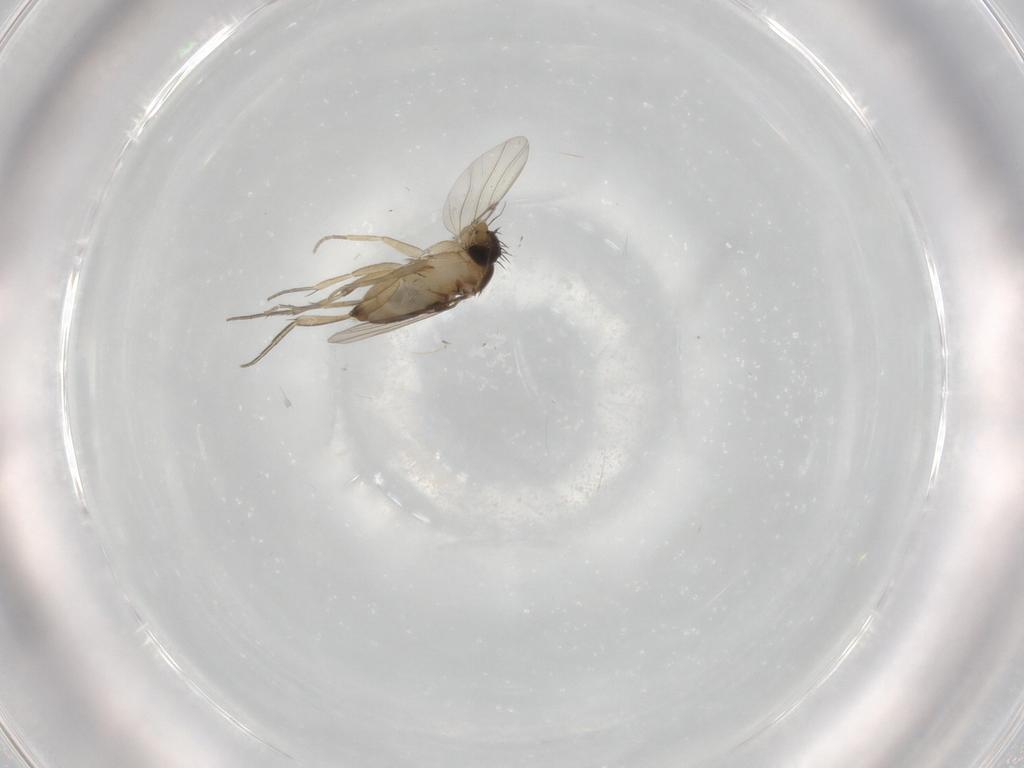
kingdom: Animalia
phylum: Arthropoda
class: Insecta
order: Diptera
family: Phoridae
